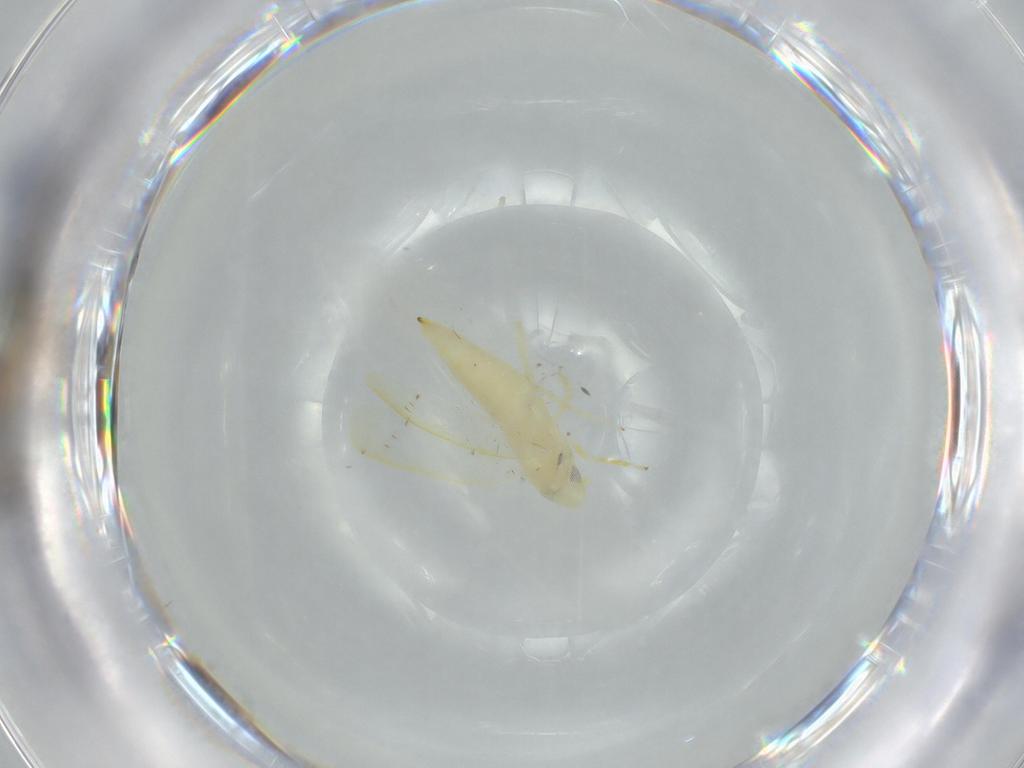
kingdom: Animalia
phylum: Arthropoda
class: Insecta
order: Hemiptera
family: Cicadellidae
